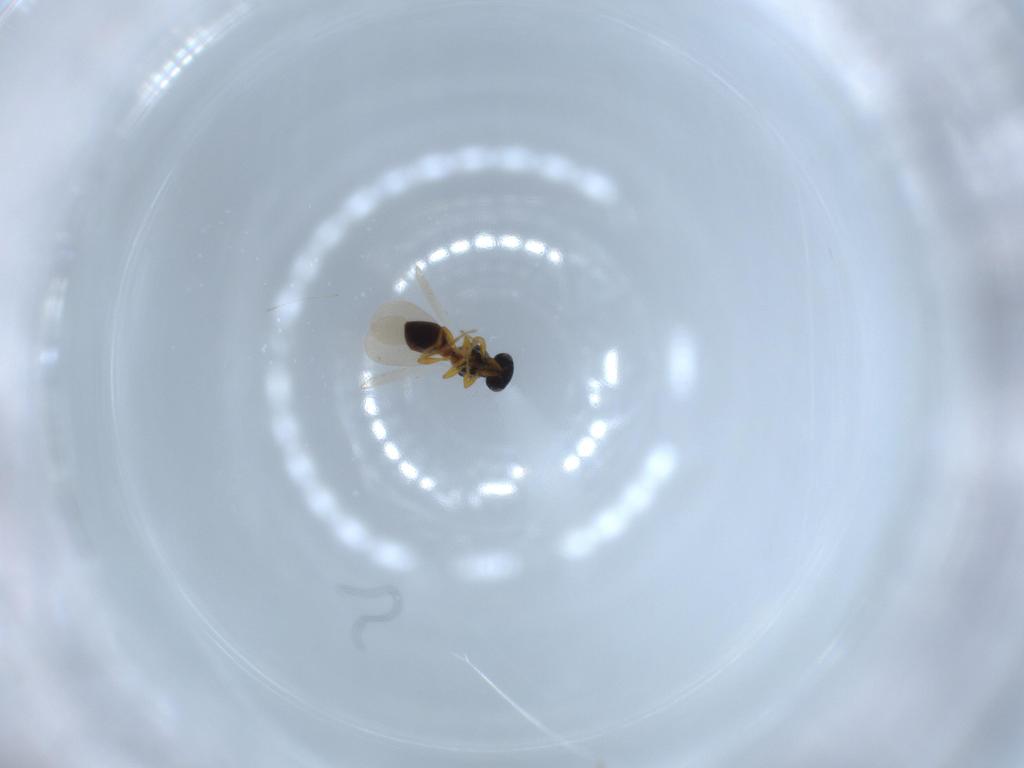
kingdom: Animalia
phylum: Arthropoda
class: Insecta
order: Hymenoptera
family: Platygastridae
